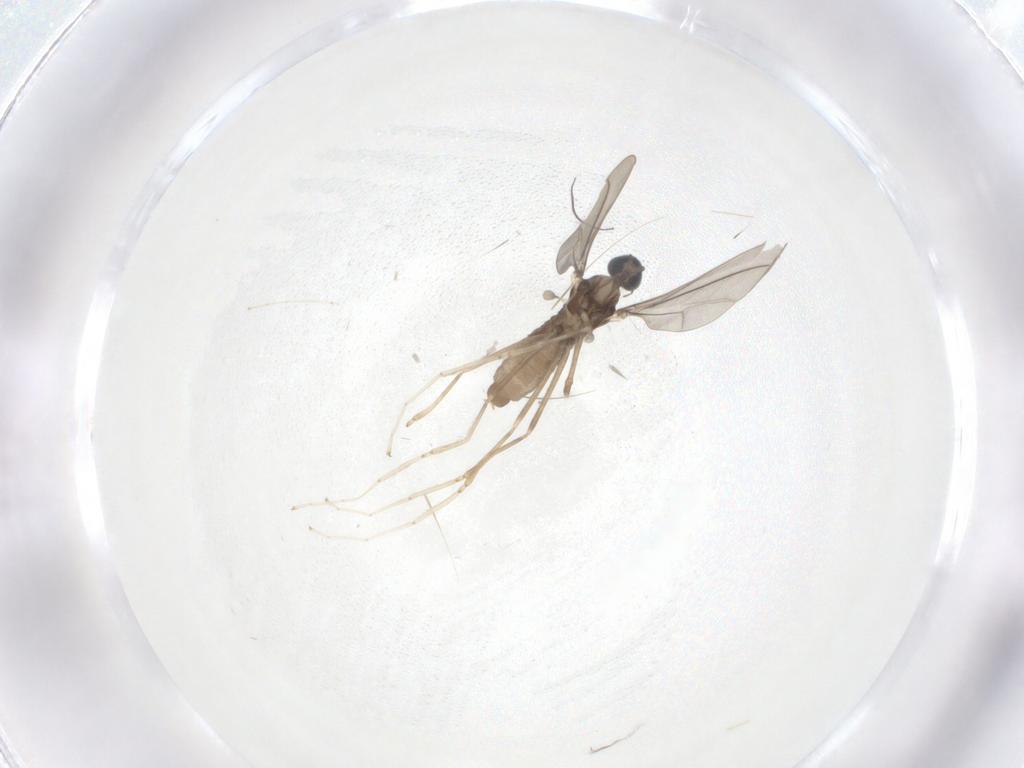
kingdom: Animalia
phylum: Arthropoda
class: Insecta
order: Diptera
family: Cecidomyiidae
